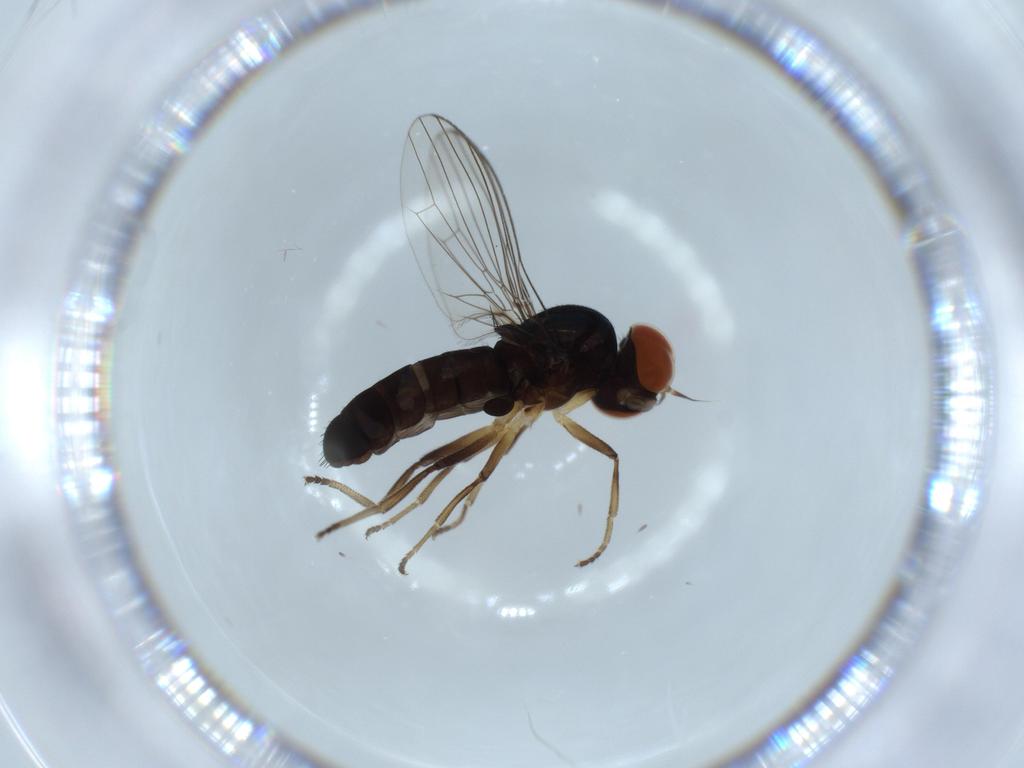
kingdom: Animalia
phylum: Arthropoda
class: Insecta
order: Diptera
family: Platypezidae
